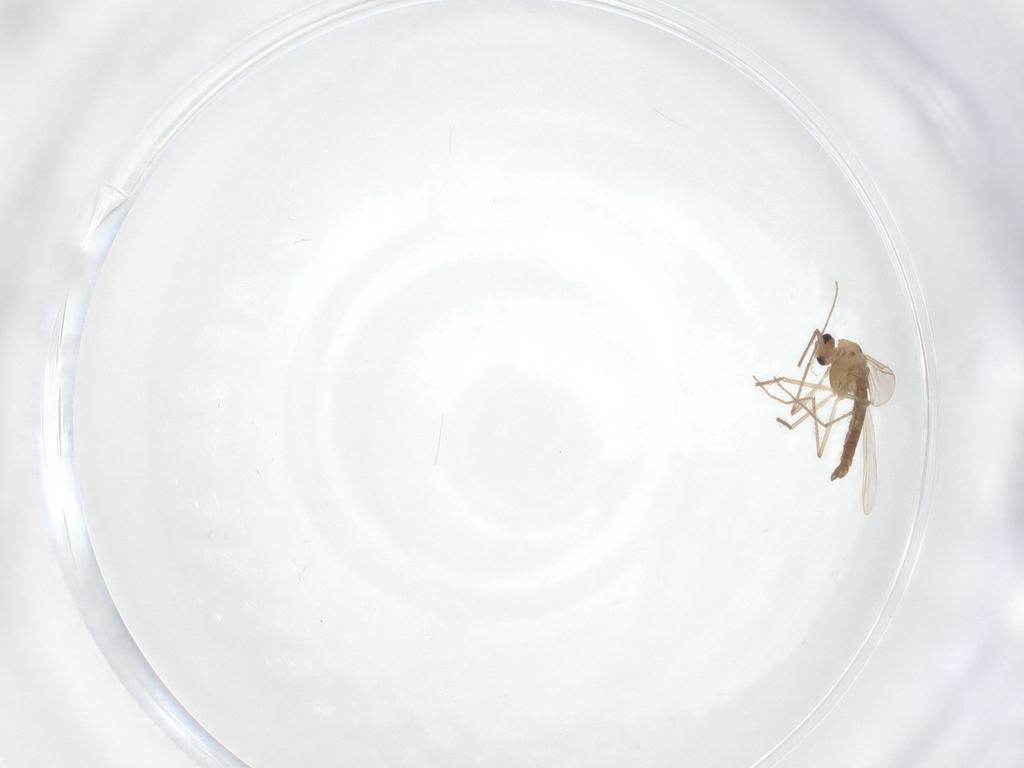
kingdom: Animalia
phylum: Arthropoda
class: Insecta
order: Diptera
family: Chironomidae
